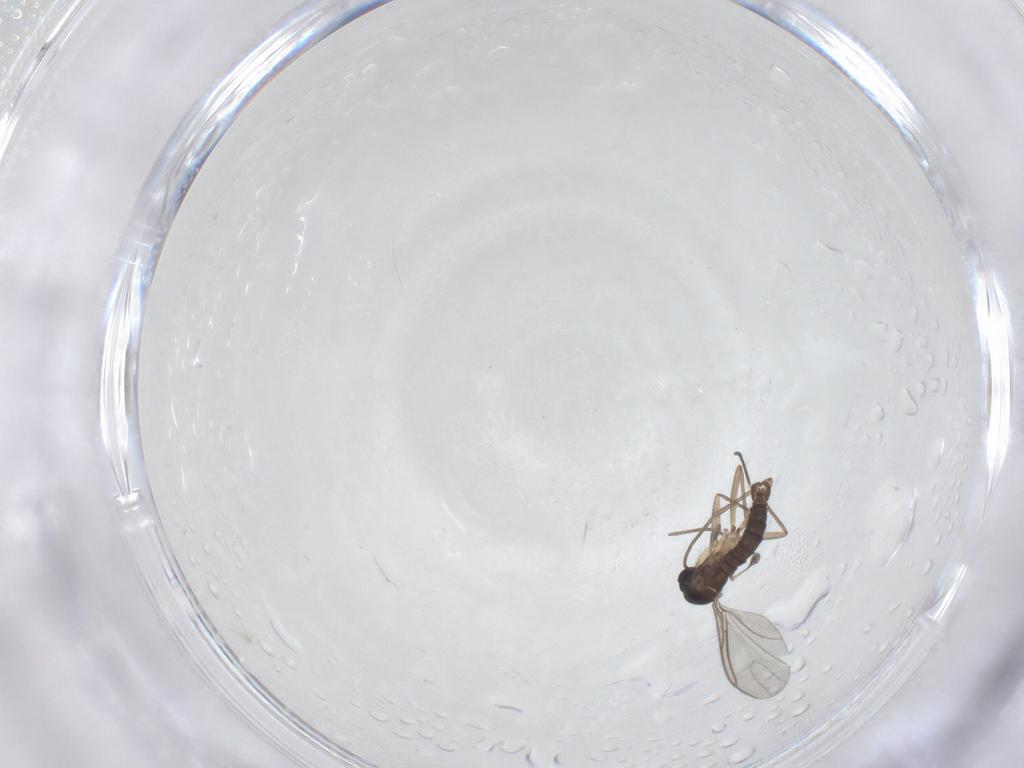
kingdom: Animalia
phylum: Arthropoda
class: Insecta
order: Diptera
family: Sciaridae
